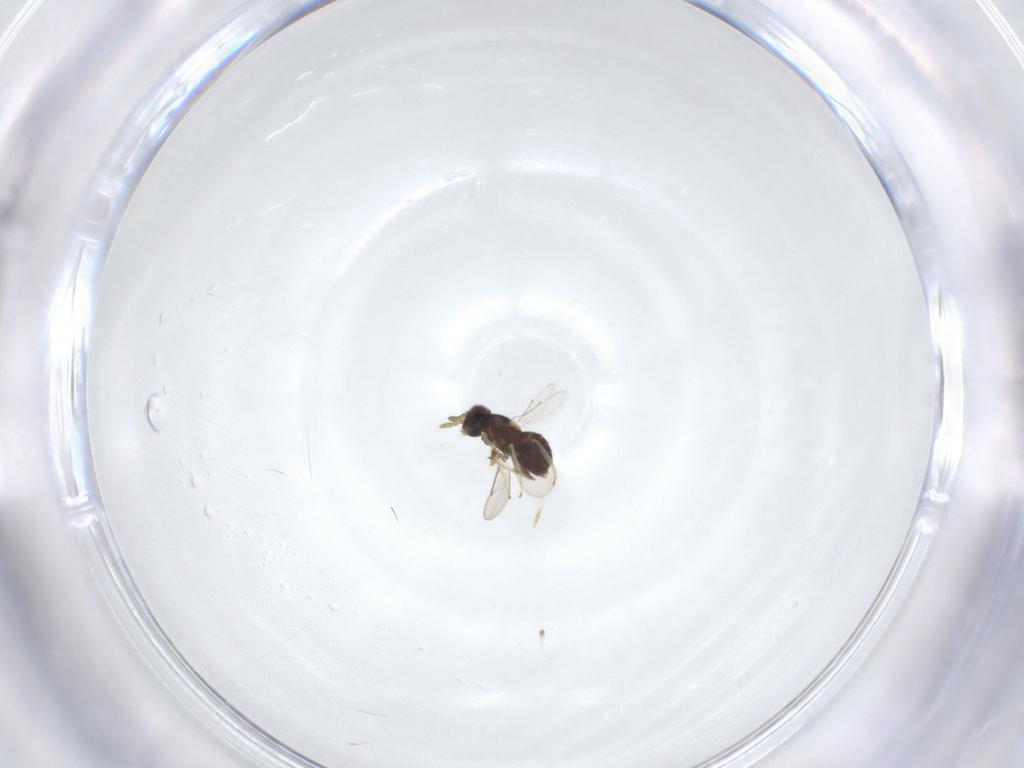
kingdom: Animalia
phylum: Arthropoda
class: Insecta
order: Hymenoptera
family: Aphelinidae
